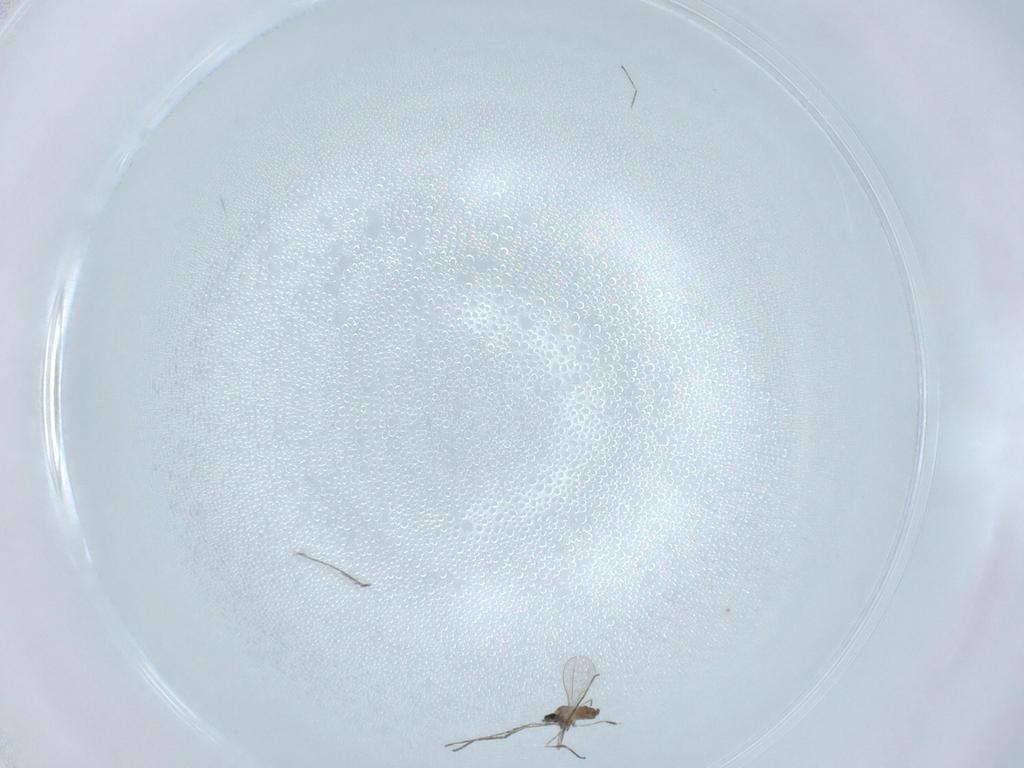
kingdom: Animalia
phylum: Arthropoda
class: Insecta
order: Diptera
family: Cecidomyiidae
